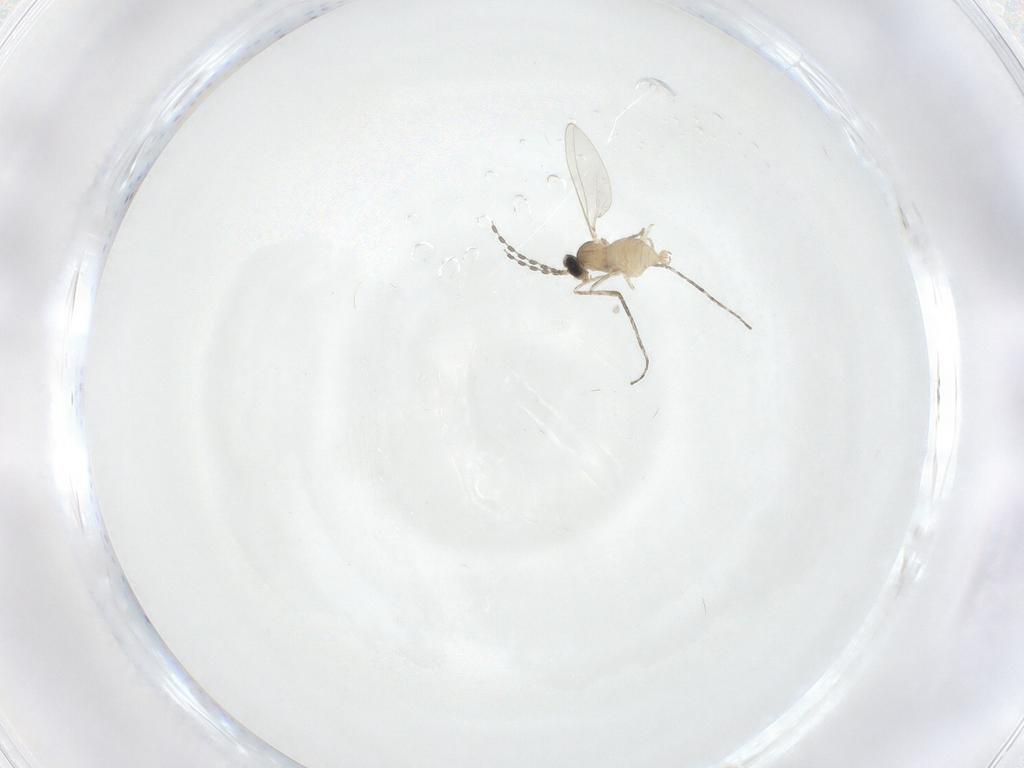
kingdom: Animalia
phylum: Arthropoda
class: Insecta
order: Diptera
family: Cecidomyiidae
